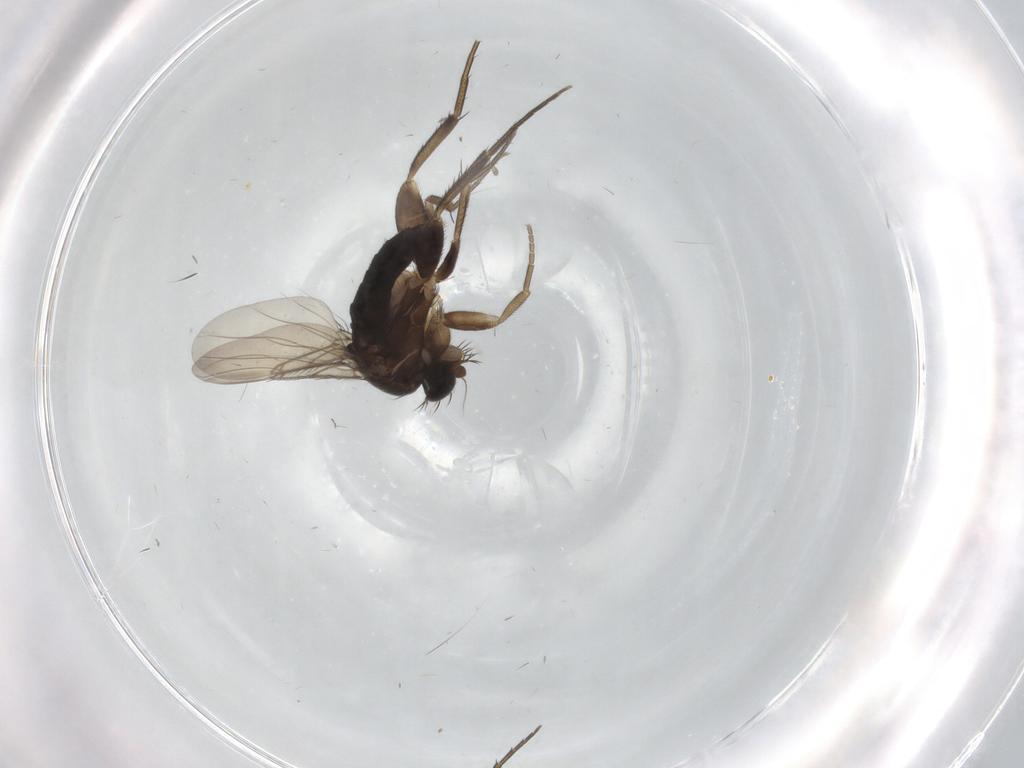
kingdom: Animalia
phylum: Arthropoda
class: Insecta
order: Diptera
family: Phoridae
